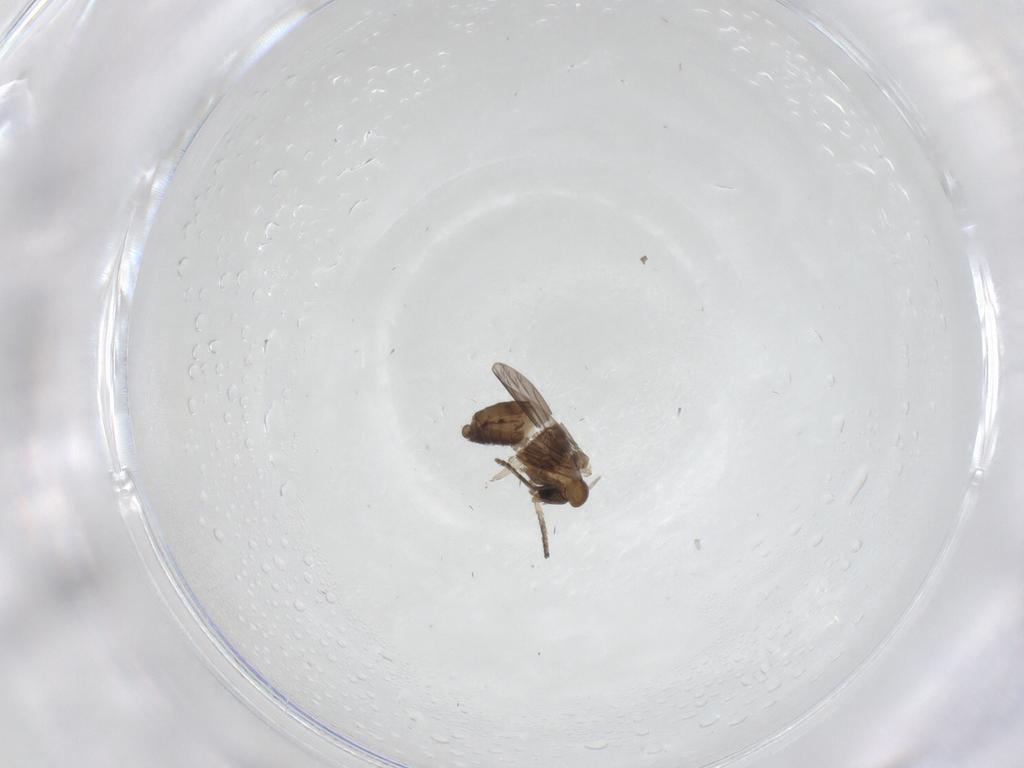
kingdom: Animalia
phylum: Arthropoda
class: Insecta
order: Diptera
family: Psychodidae
